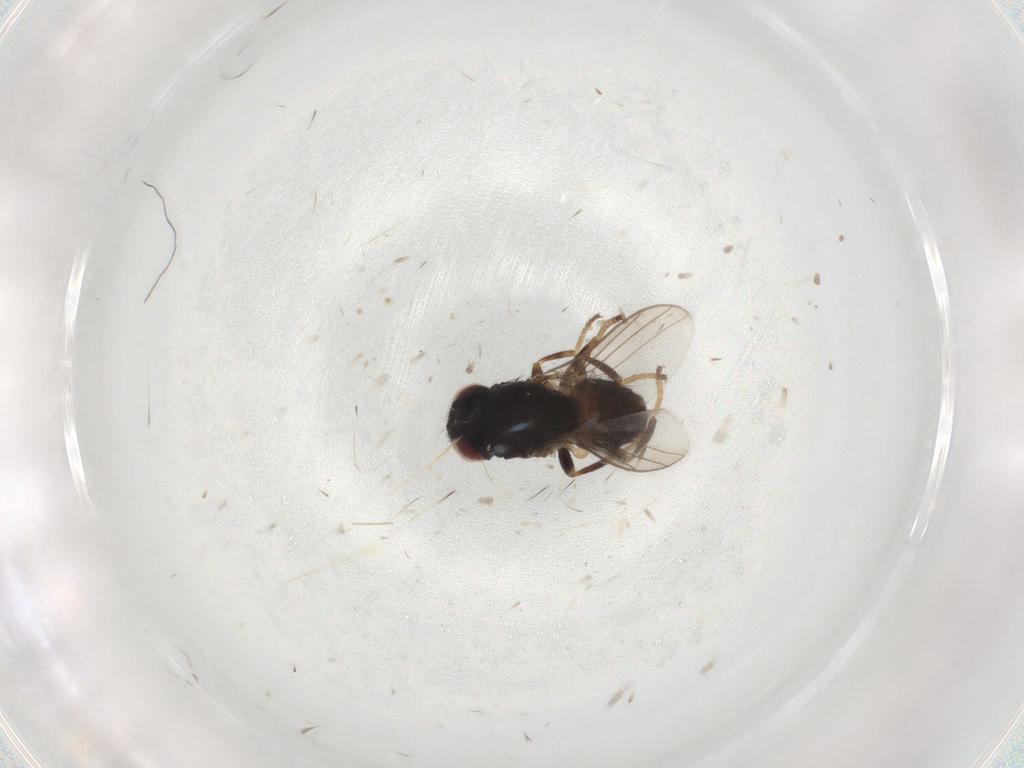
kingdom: Animalia
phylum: Arthropoda
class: Insecta
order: Diptera
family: Chloropidae
